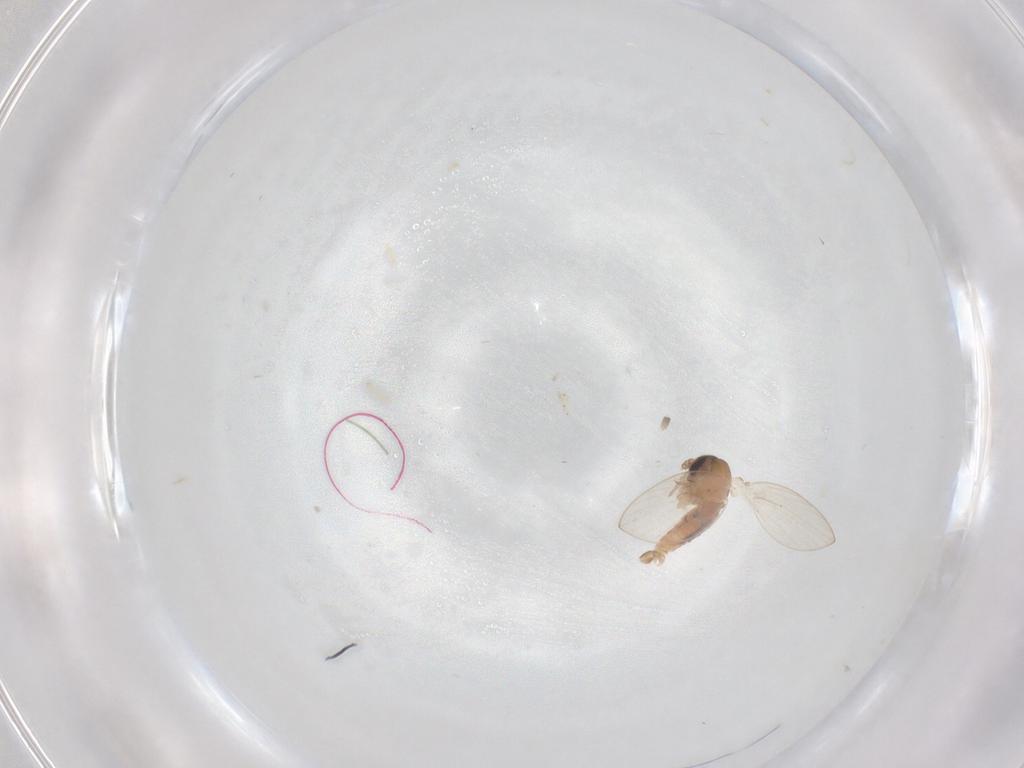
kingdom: Animalia
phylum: Arthropoda
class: Insecta
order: Diptera
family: Psychodidae
